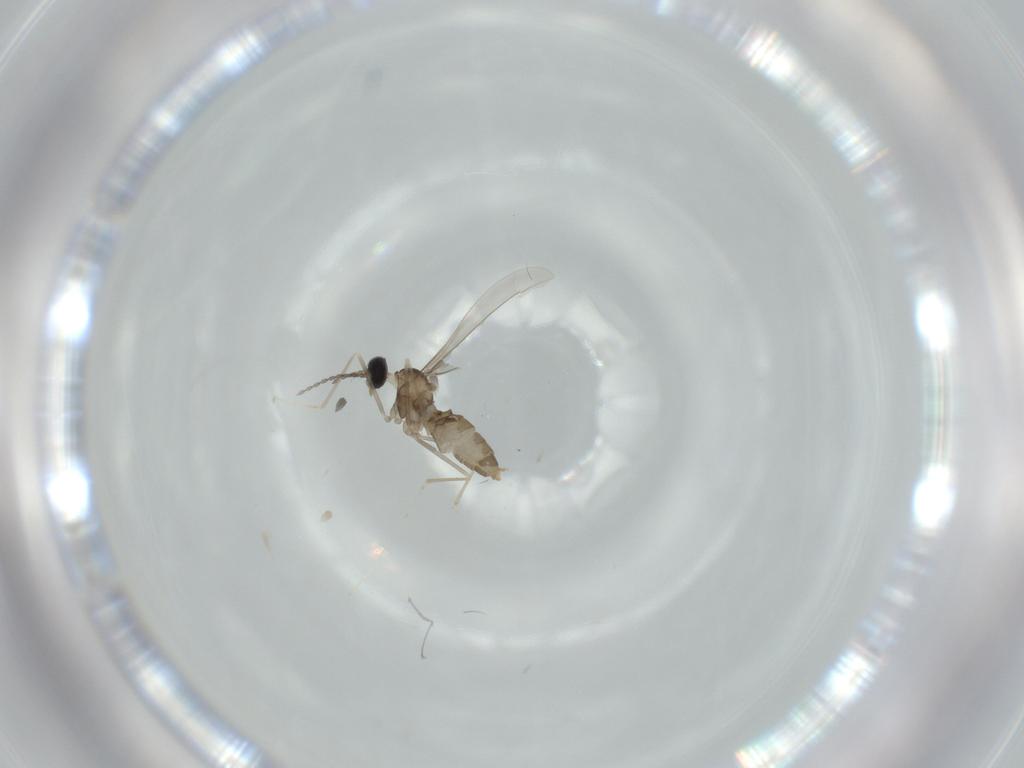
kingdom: Animalia
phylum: Arthropoda
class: Insecta
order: Diptera
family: Cecidomyiidae
